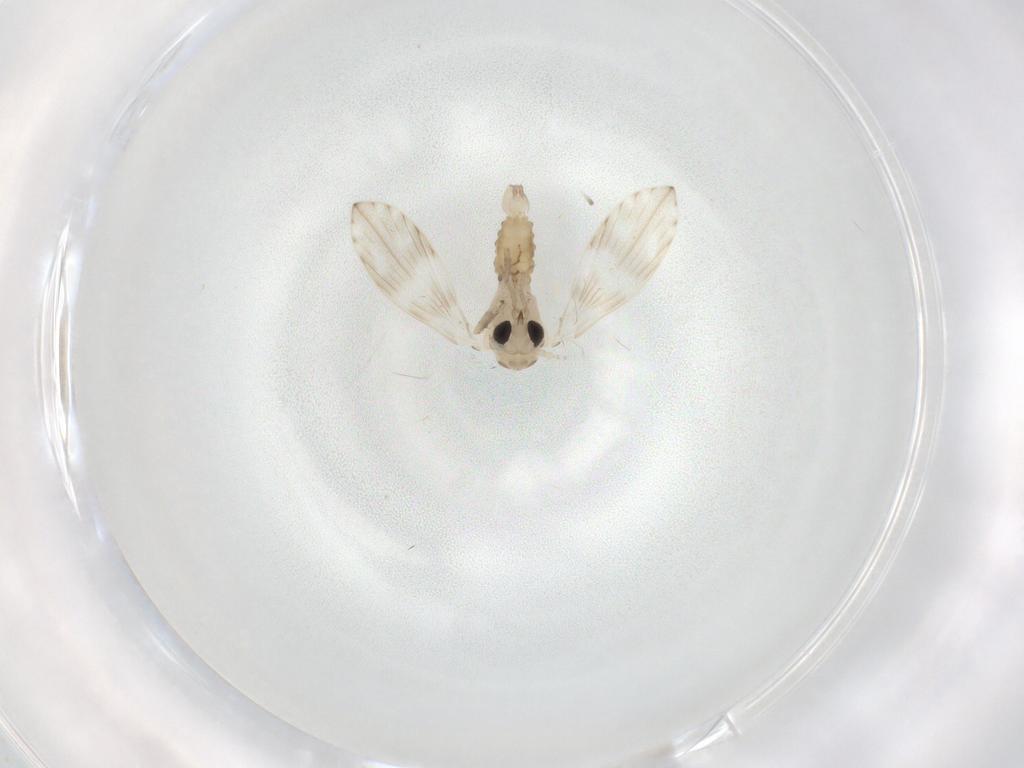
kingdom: Animalia
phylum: Arthropoda
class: Insecta
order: Diptera
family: Psychodidae
